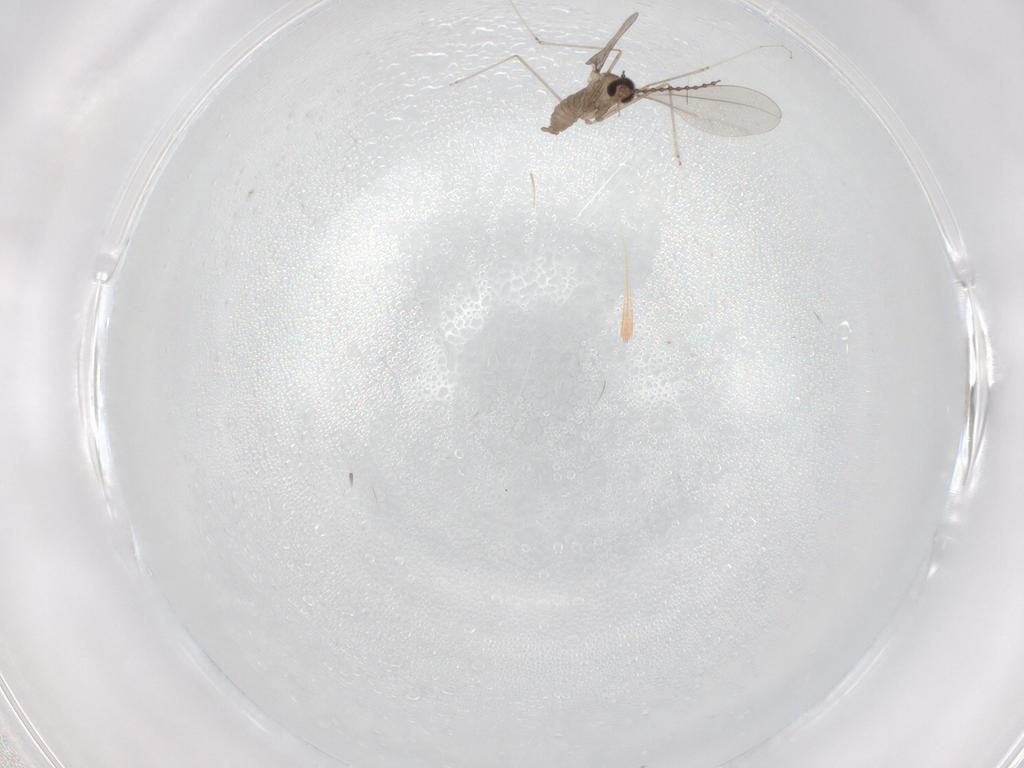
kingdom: Animalia
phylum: Arthropoda
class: Insecta
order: Diptera
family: Cecidomyiidae
